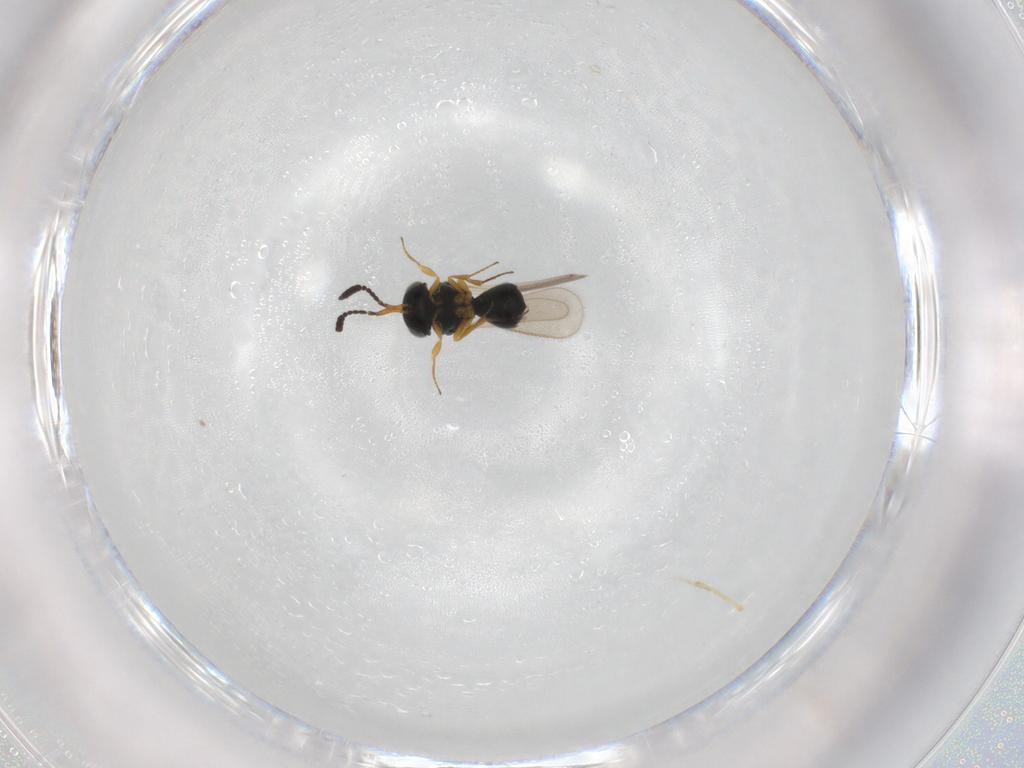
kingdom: Animalia
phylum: Arthropoda
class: Insecta
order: Hymenoptera
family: Scelionidae
